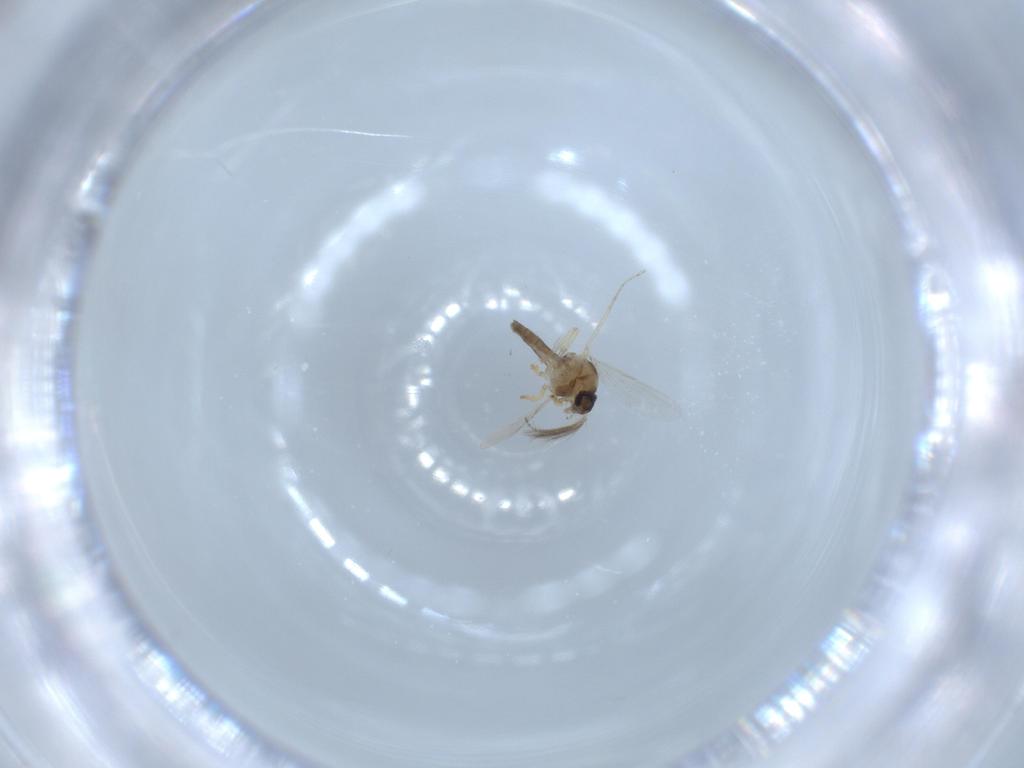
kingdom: Animalia
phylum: Arthropoda
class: Insecta
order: Diptera
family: Ceratopogonidae
